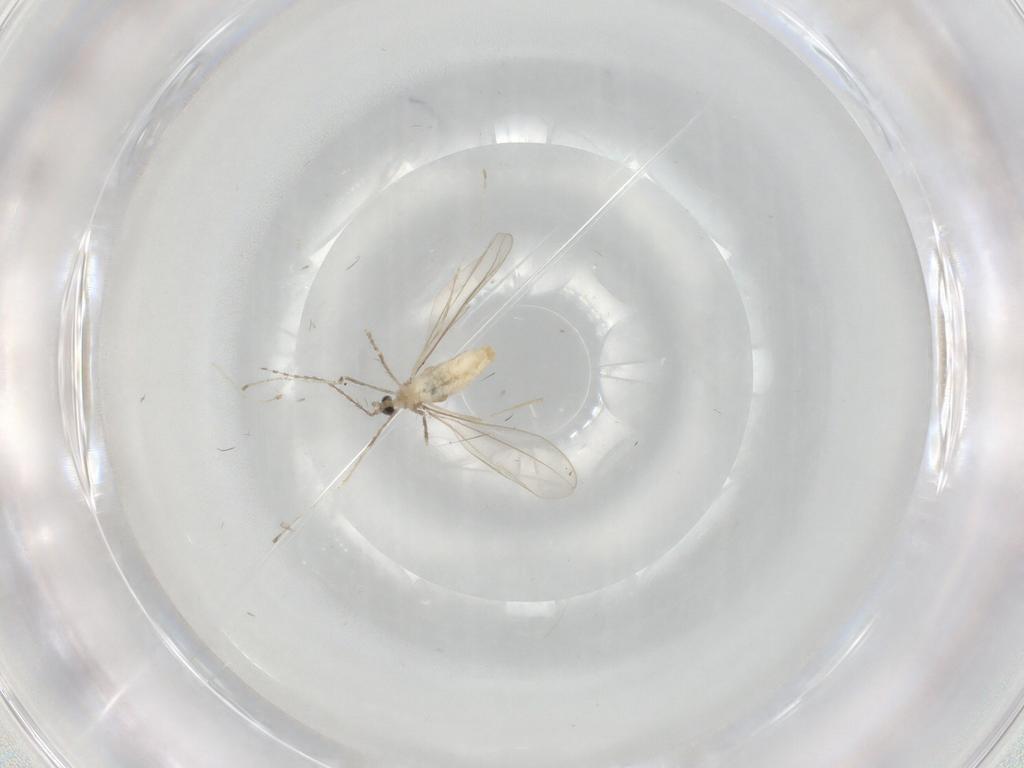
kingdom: Animalia
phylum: Arthropoda
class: Insecta
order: Diptera
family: Cecidomyiidae
